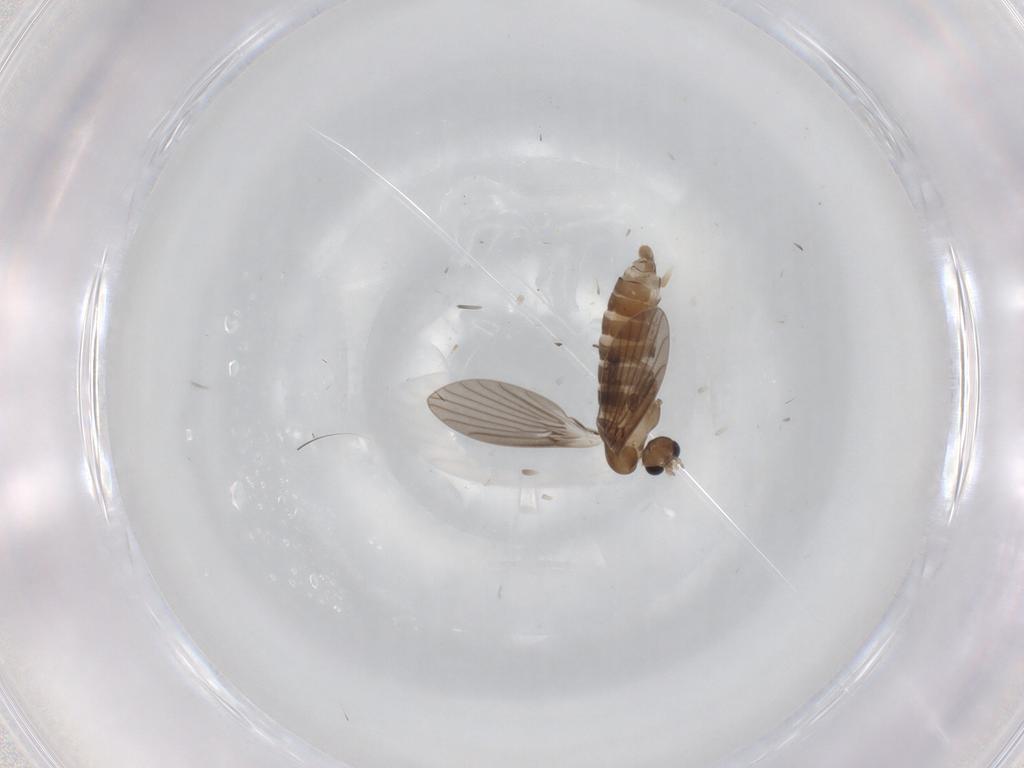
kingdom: Animalia
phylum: Arthropoda
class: Insecta
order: Diptera
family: Psychodidae
